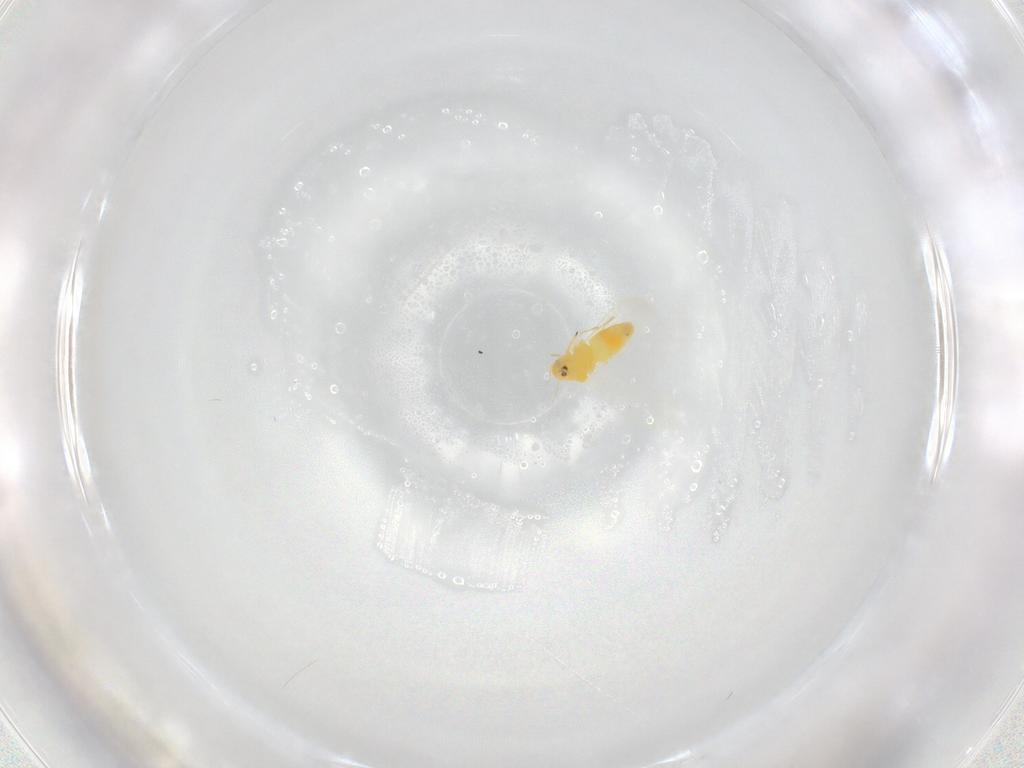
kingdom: Animalia
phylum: Arthropoda
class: Insecta
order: Hemiptera
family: Aleyrodidae
